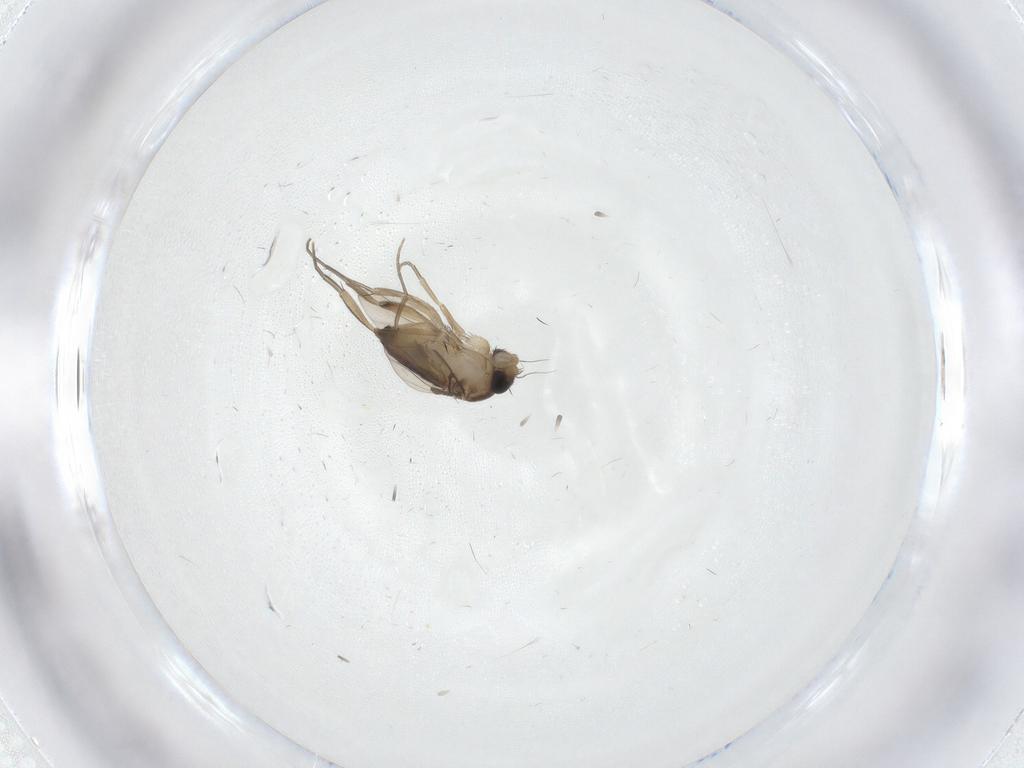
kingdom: Animalia
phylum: Arthropoda
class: Insecta
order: Diptera
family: Phoridae
